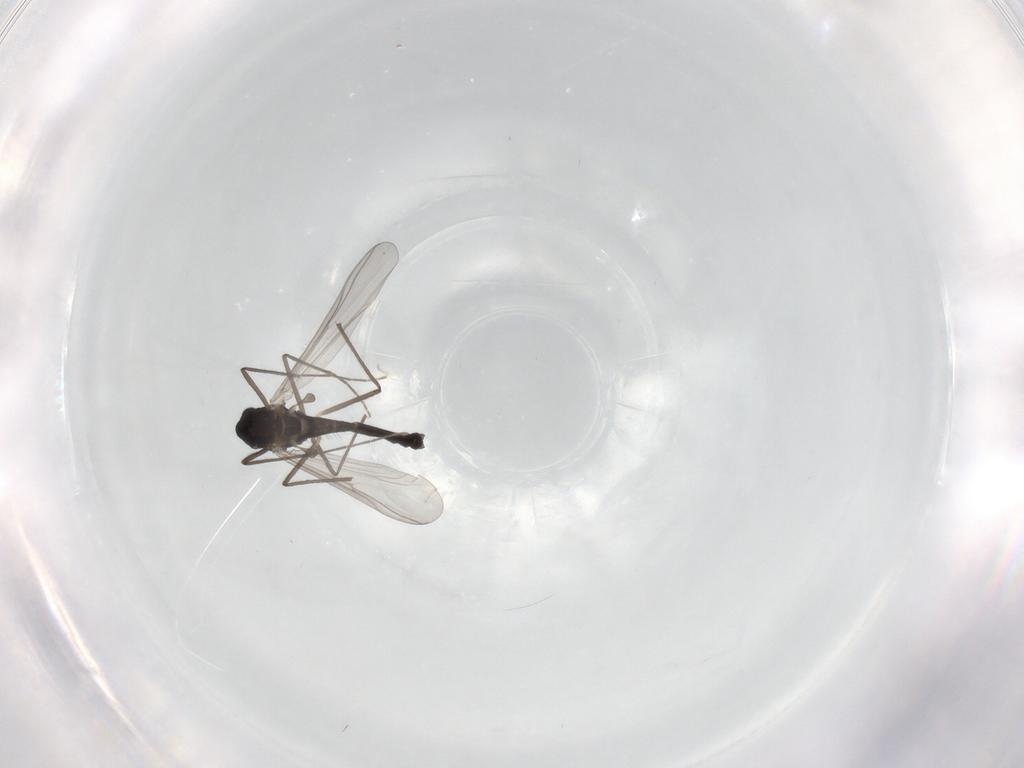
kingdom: Animalia
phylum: Arthropoda
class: Insecta
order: Diptera
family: Chironomidae
